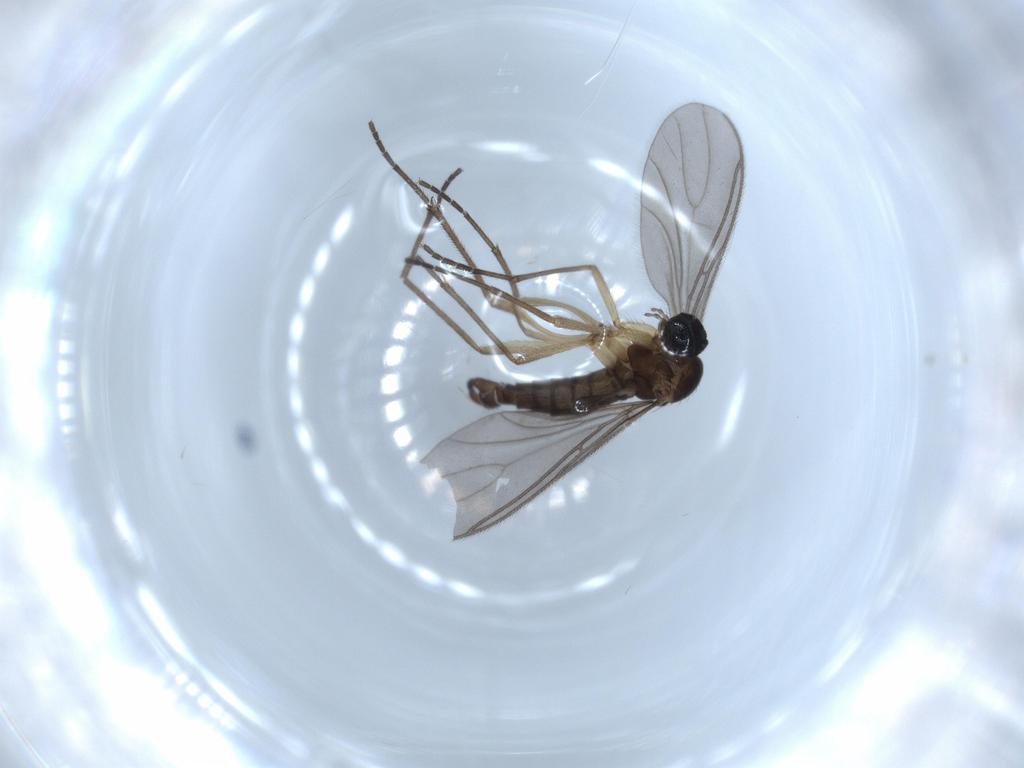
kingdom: Animalia
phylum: Arthropoda
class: Insecta
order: Diptera
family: Sciaridae
